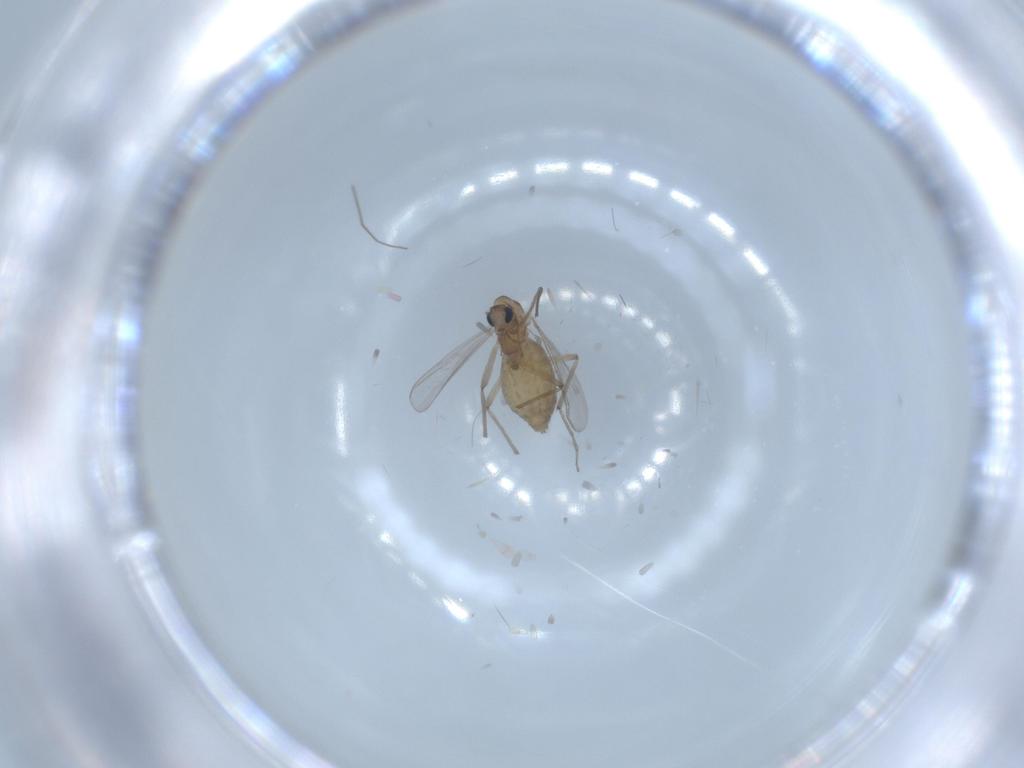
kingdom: Animalia
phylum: Arthropoda
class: Insecta
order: Diptera
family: Chironomidae
